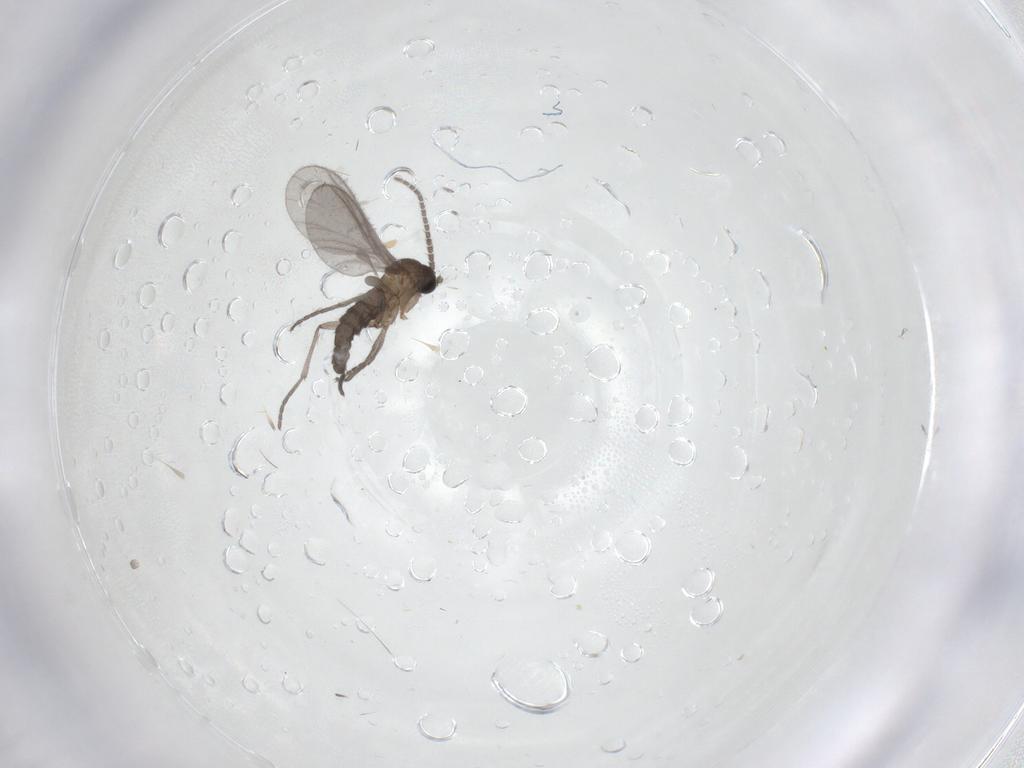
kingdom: Animalia
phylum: Arthropoda
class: Insecta
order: Diptera
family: Sciaridae
